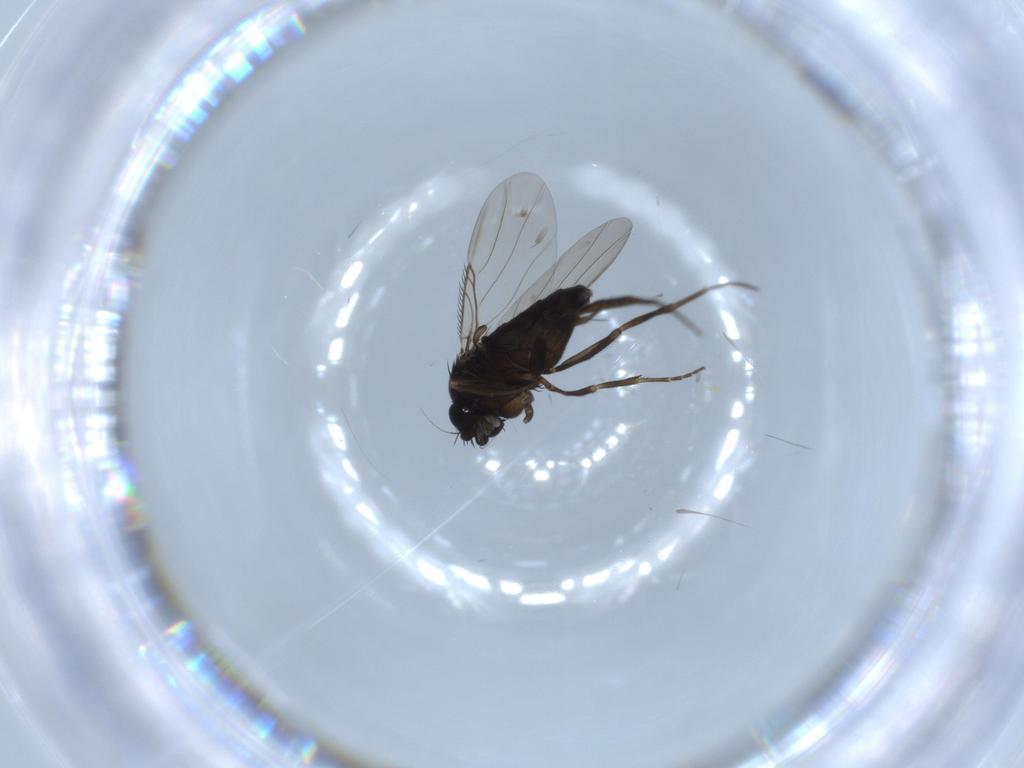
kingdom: Animalia
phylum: Arthropoda
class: Insecta
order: Diptera
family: Phoridae
